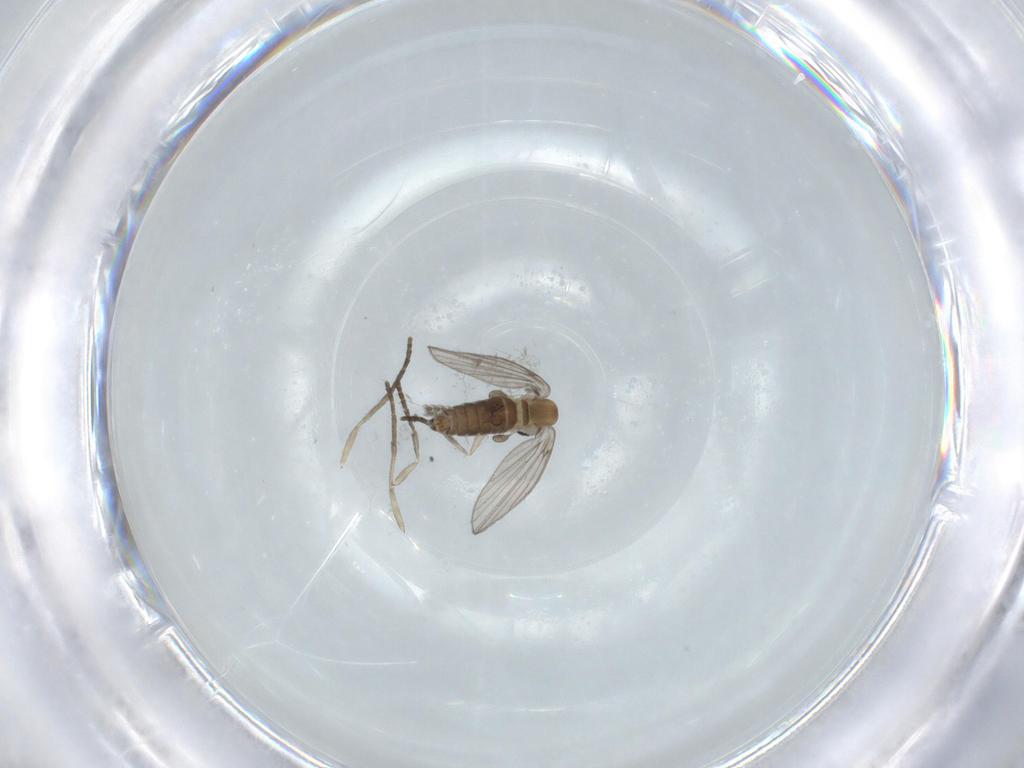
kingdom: Animalia
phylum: Arthropoda
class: Insecta
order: Diptera
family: Psychodidae
